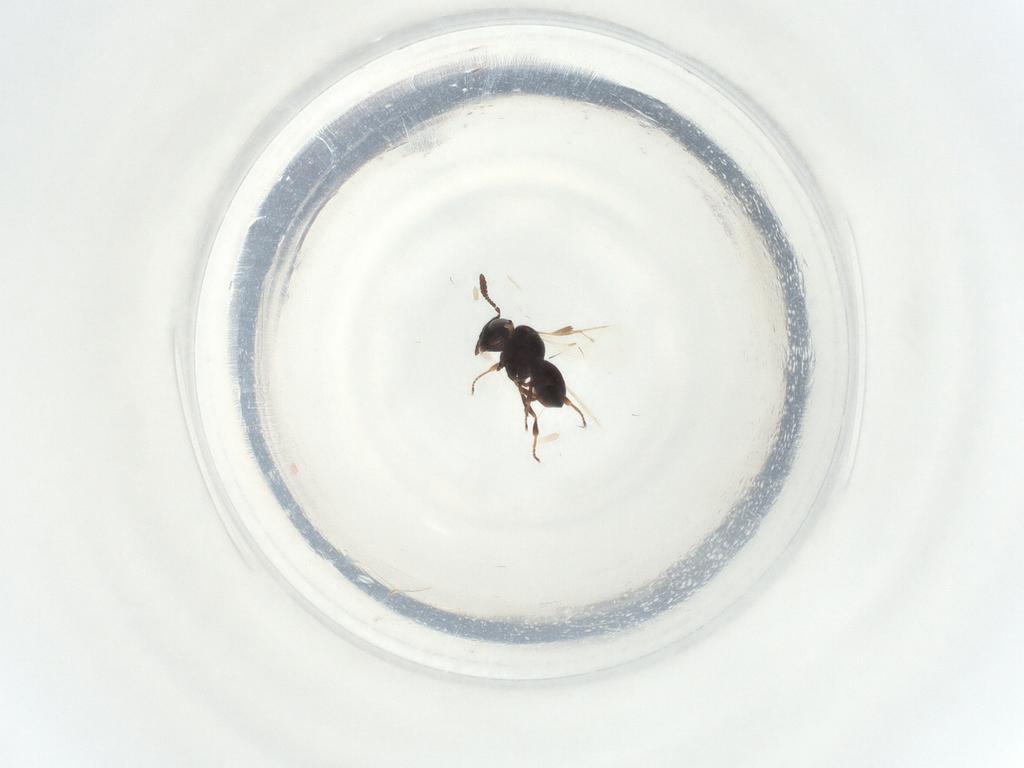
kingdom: Animalia
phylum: Arthropoda
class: Insecta
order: Hymenoptera
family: Scelionidae
